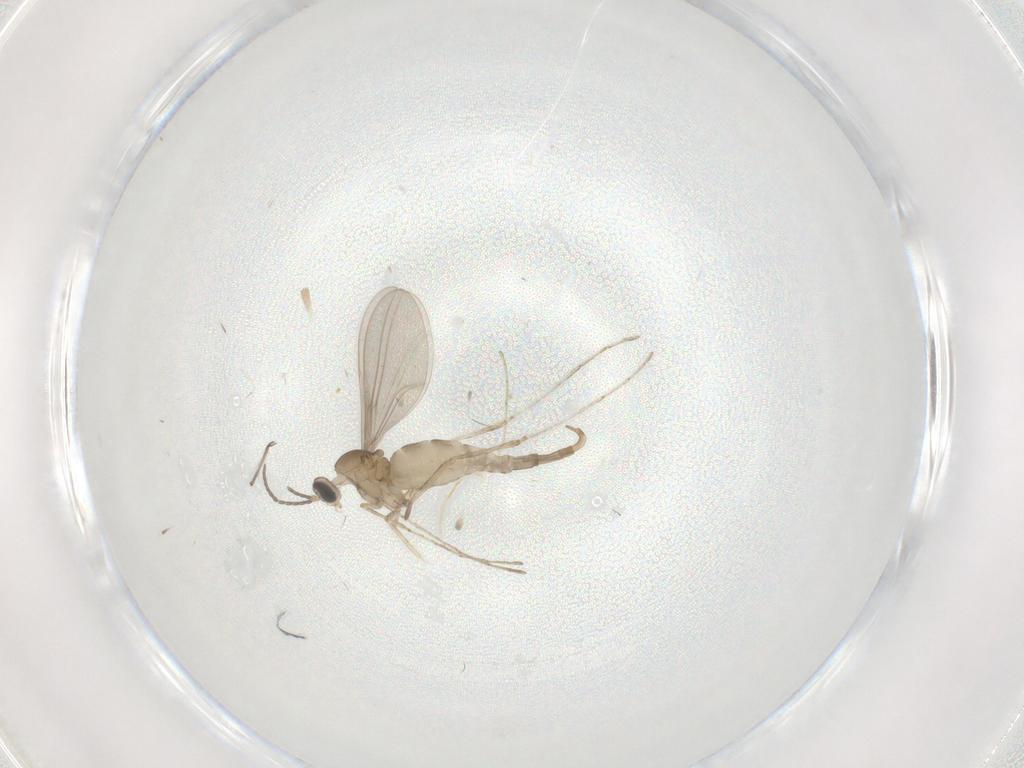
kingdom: Animalia
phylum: Arthropoda
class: Insecta
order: Diptera
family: Cecidomyiidae
